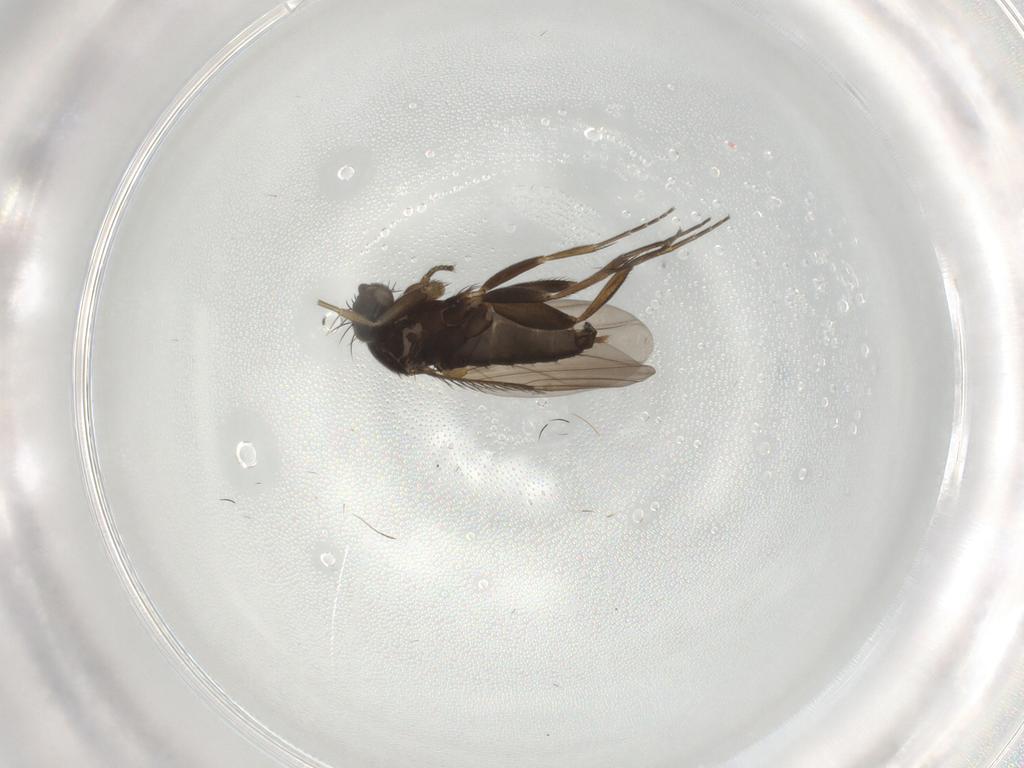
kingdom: Animalia
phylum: Arthropoda
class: Insecta
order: Diptera
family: Phoridae
